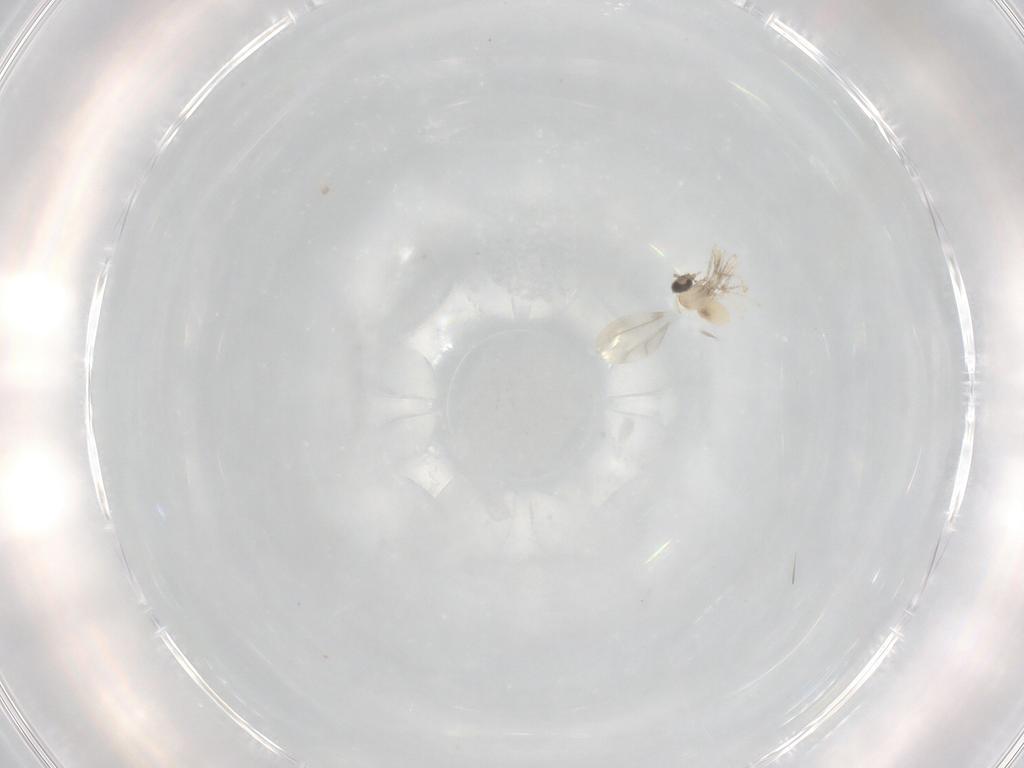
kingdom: Animalia
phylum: Arthropoda
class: Insecta
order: Diptera
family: Cecidomyiidae
